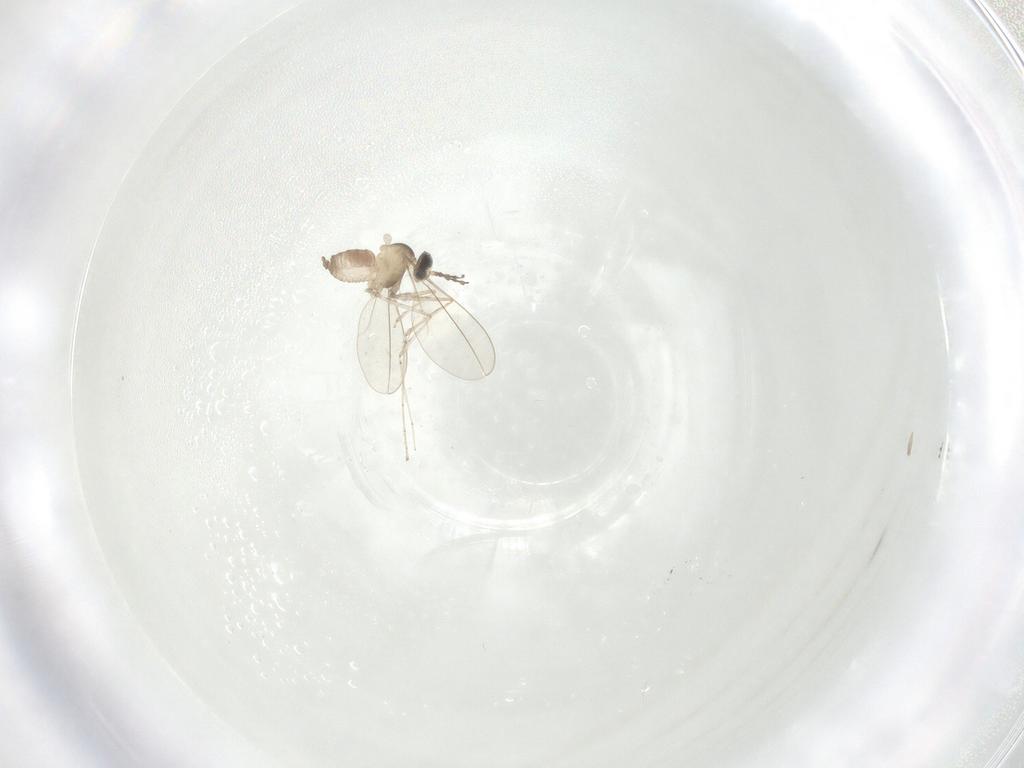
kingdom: Animalia
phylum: Arthropoda
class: Insecta
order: Diptera
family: Cecidomyiidae
